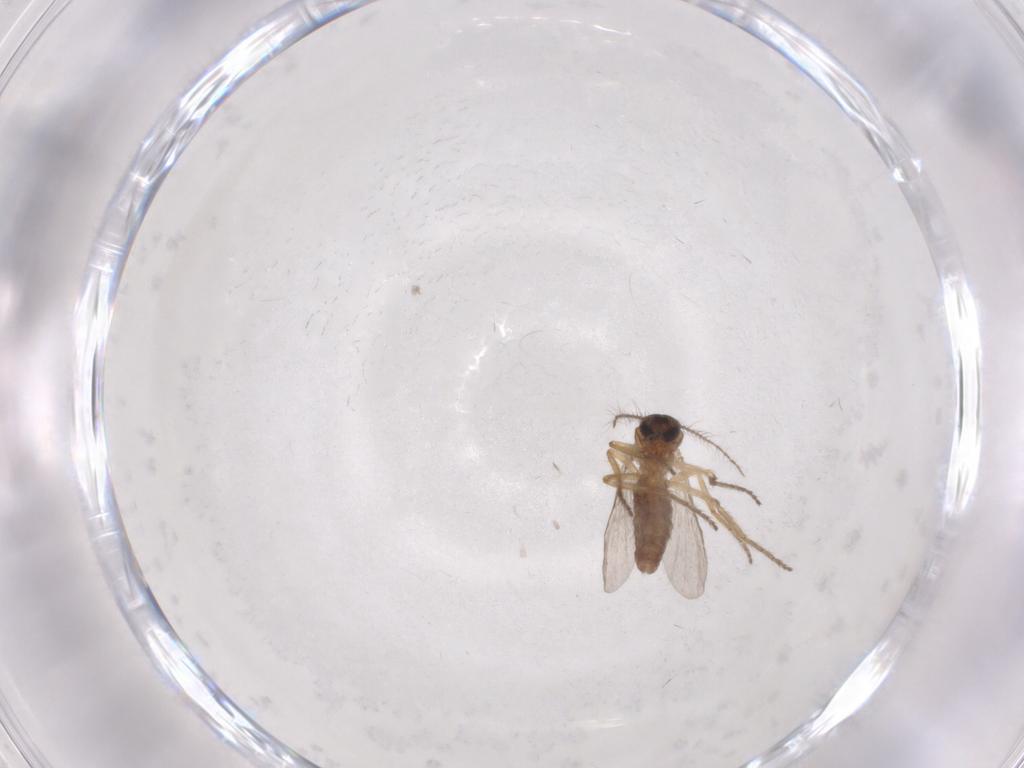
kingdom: Animalia
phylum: Arthropoda
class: Insecta
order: Diptera
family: Ceratopogonidae
